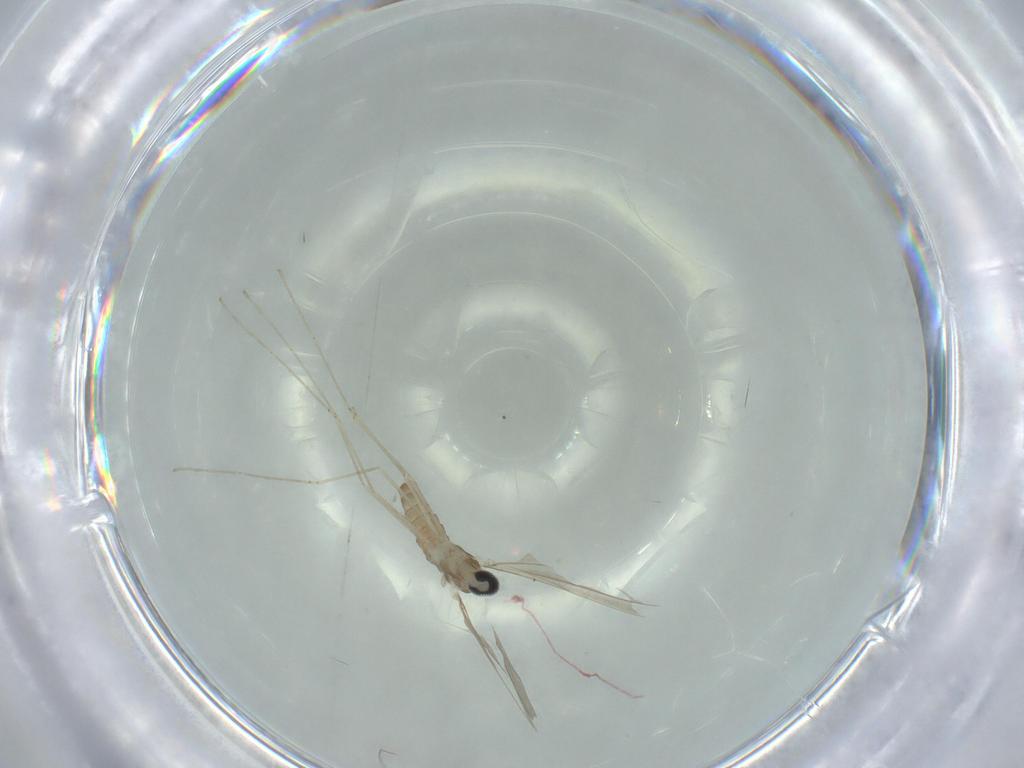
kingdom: Animalia
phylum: Arthropoda
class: Insecta
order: Diptera
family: Cecidomyiidae
